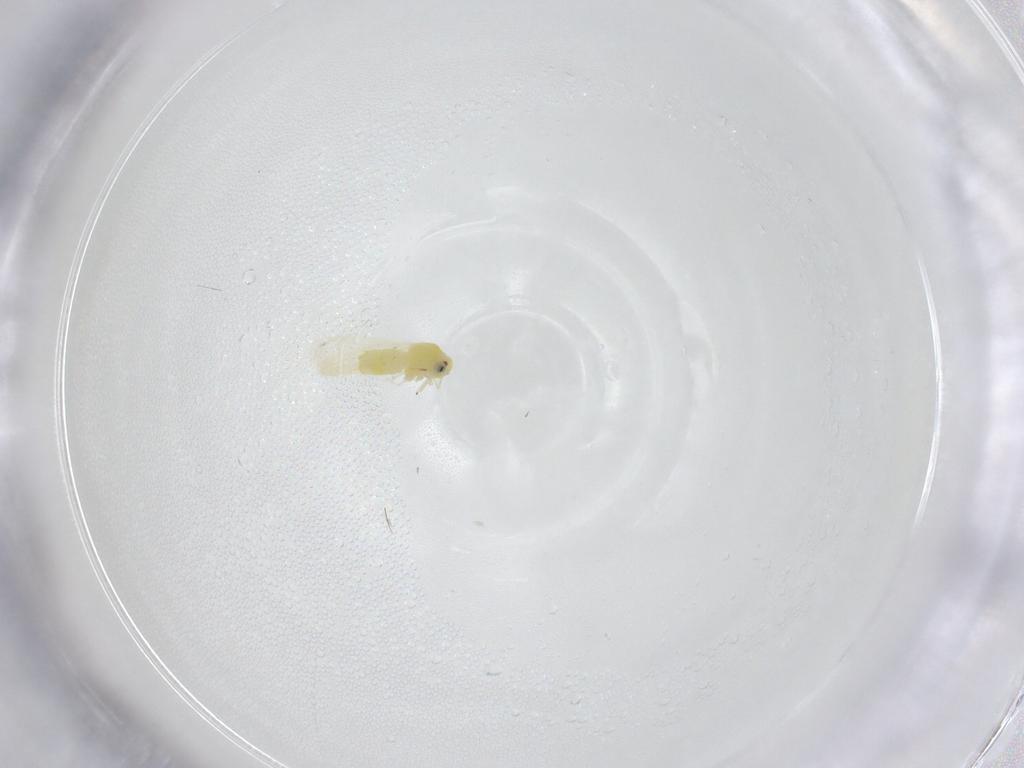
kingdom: Animalia
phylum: Arthropoda
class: Insecta
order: Hemiptera
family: Aleyrodidae
